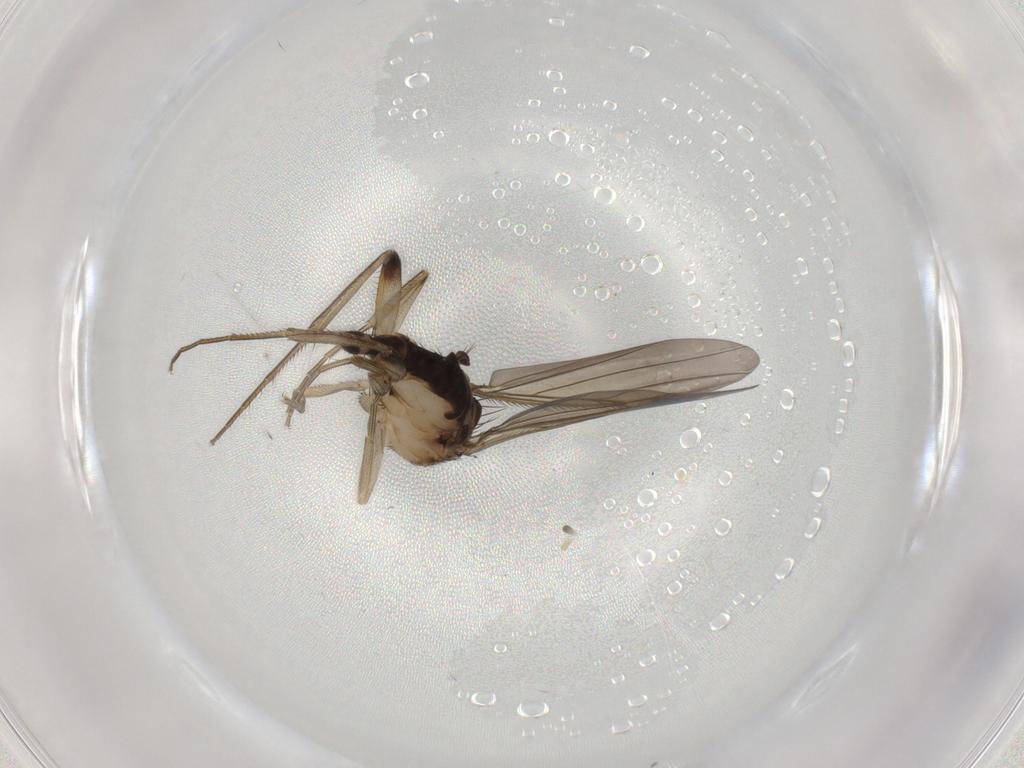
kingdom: Animalia
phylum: Arthropoda
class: Insecta
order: Diptera
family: Phoridae
